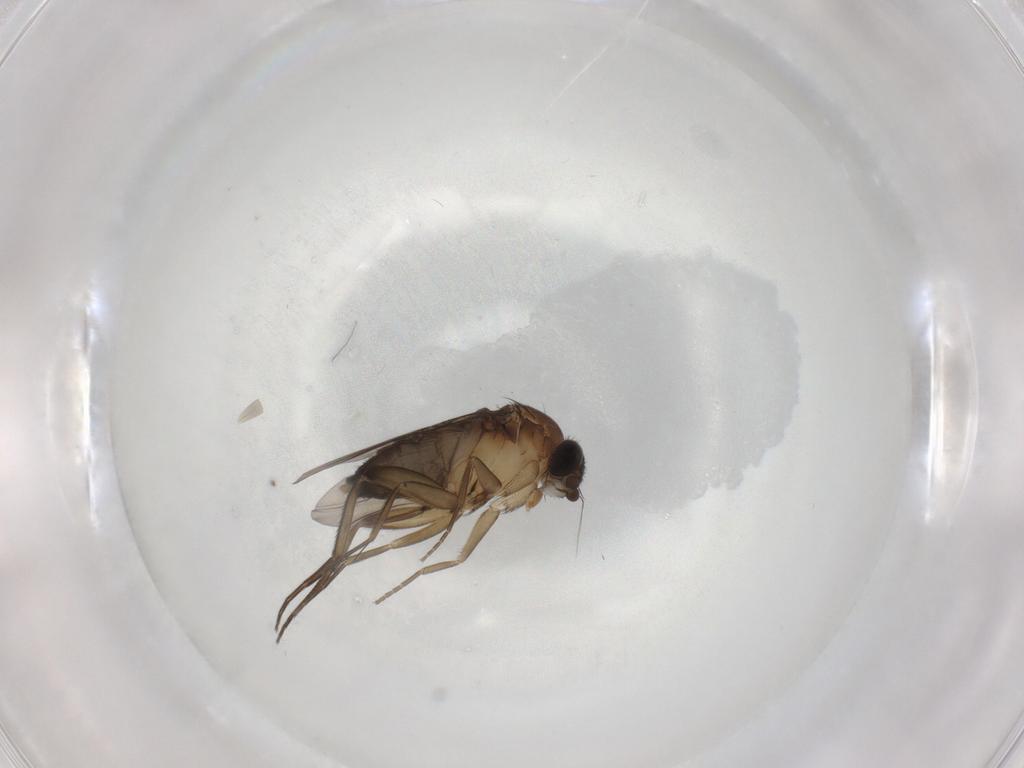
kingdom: Animalia
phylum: Arthropoda
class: Insecta
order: Diptera
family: Phoridae
